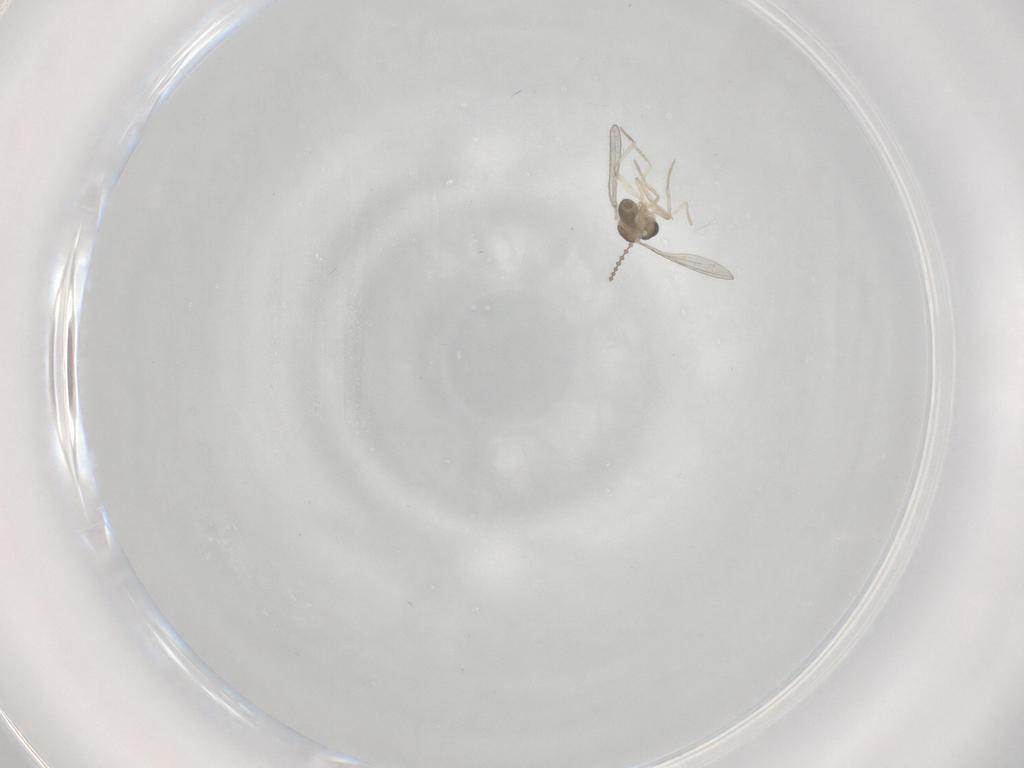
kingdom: Animalia
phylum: Arthropoda
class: Insecta
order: Diptera
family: Cecidomyiidae
